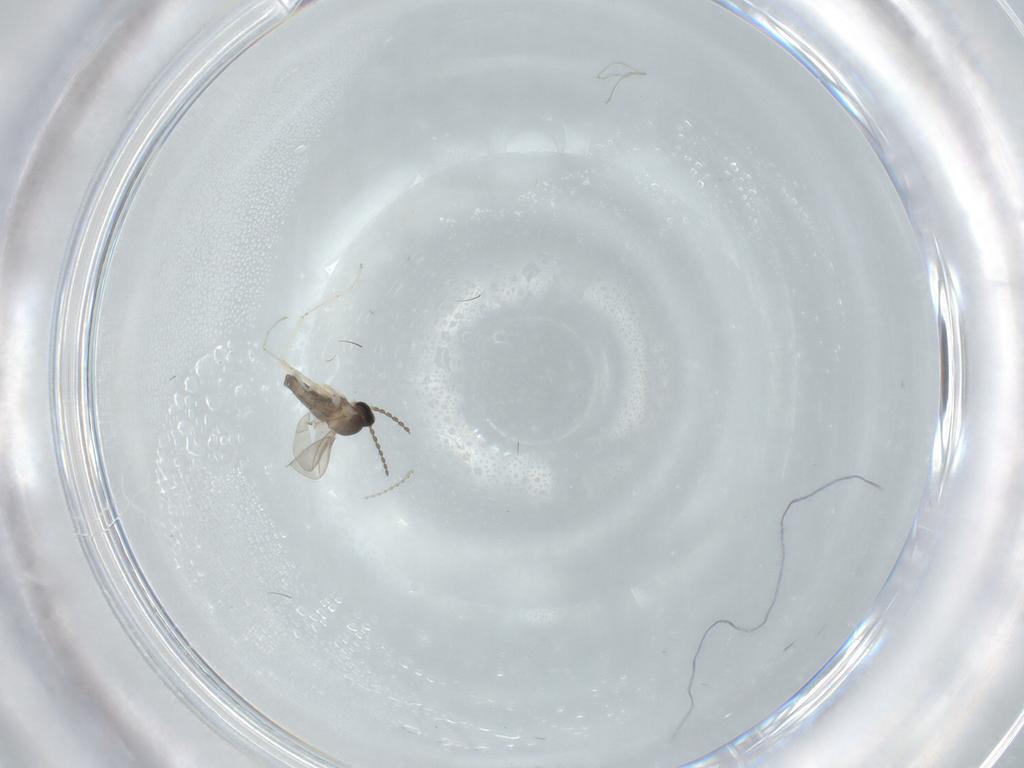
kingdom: Animalia
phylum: Arthropoda
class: Insecta
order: Diptera
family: Cecidomyiidae
